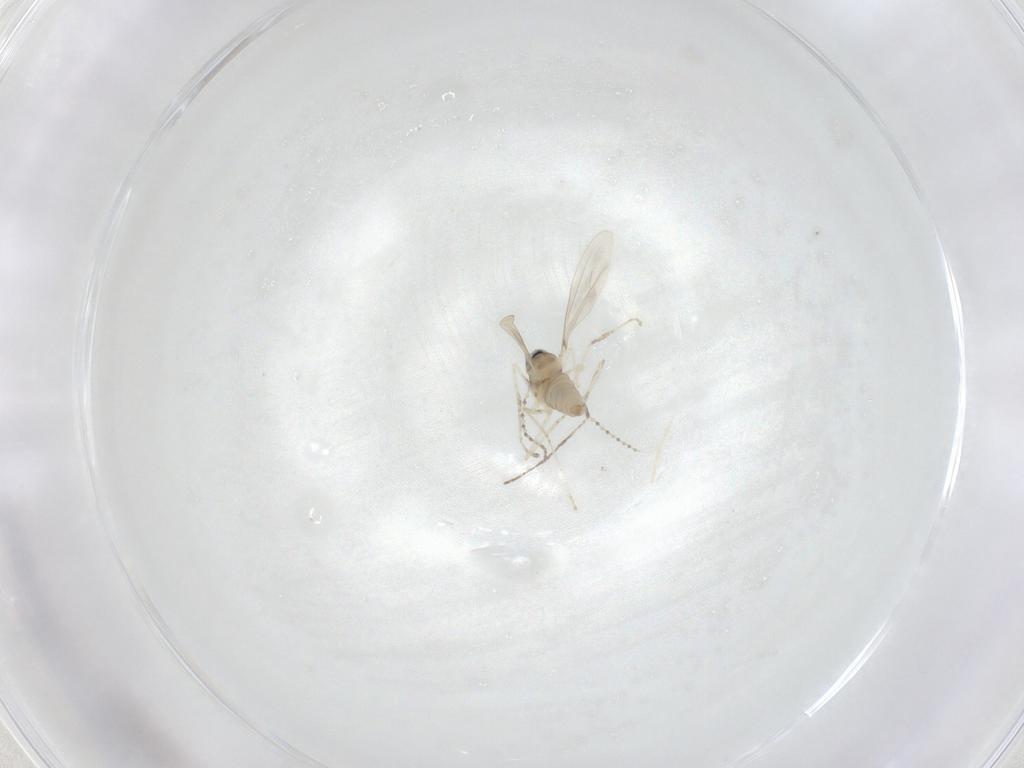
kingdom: Animalia
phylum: Arthropoda
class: Insecta
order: Diptera
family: Cecidomyiidae
